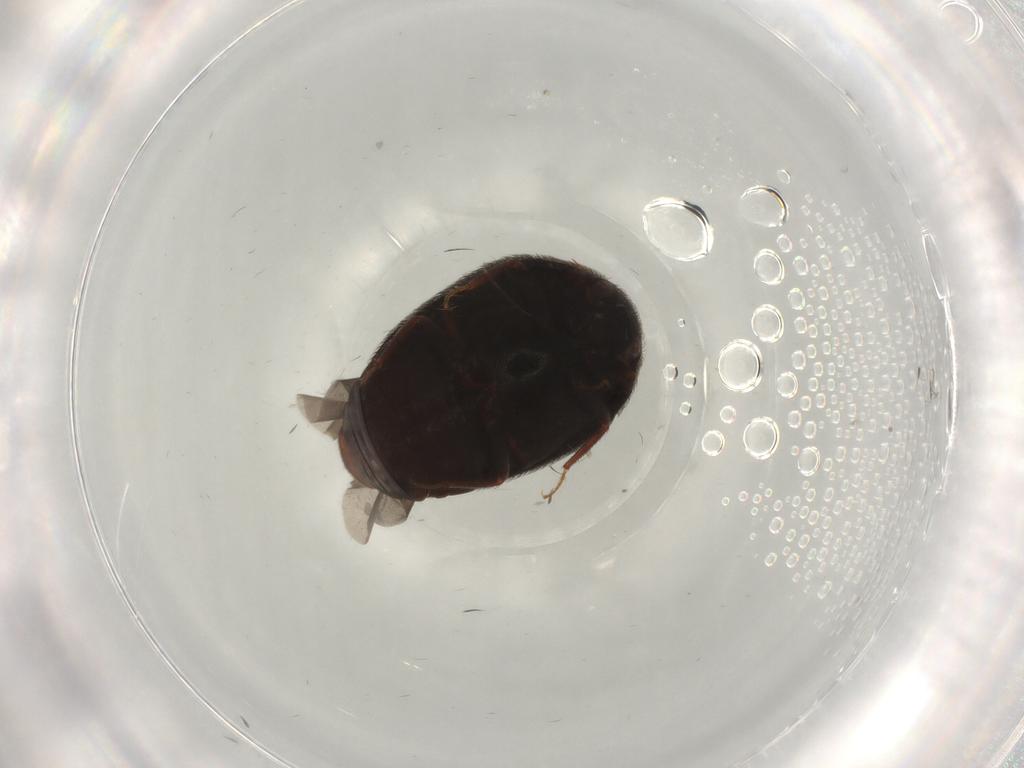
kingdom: Animalia
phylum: Arthropoda
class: Insecta
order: Coleoptera
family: Dermestidae
